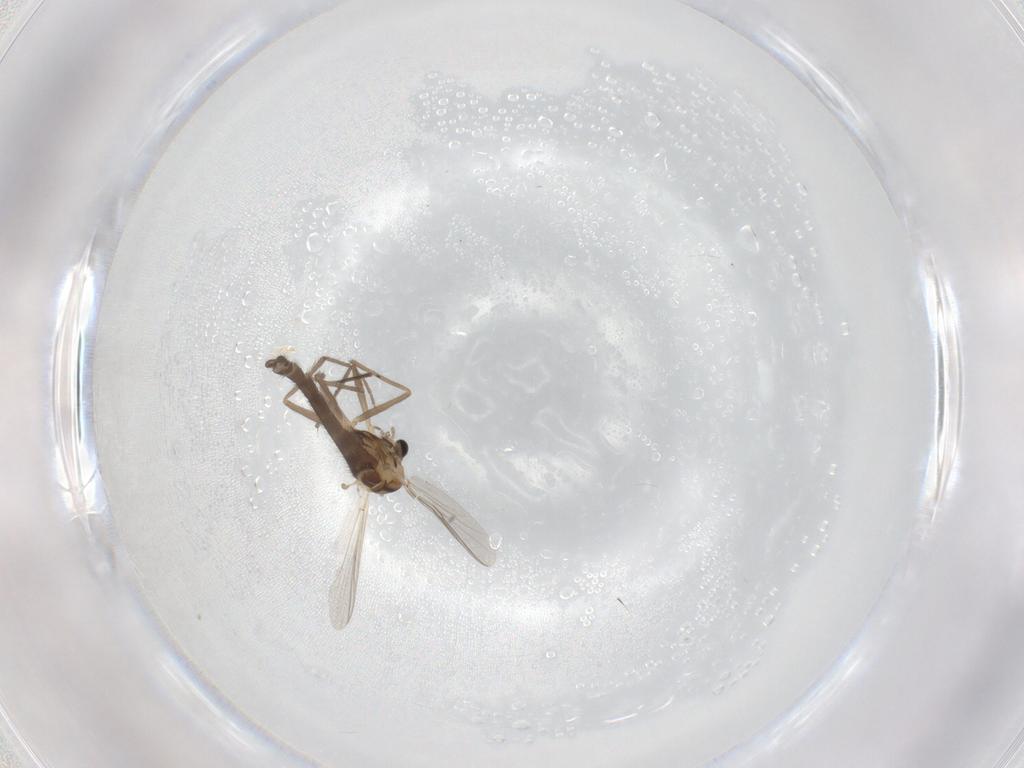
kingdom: Animalia
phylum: Arthropoda
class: Insecta
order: Diptera
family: Chironomidae
